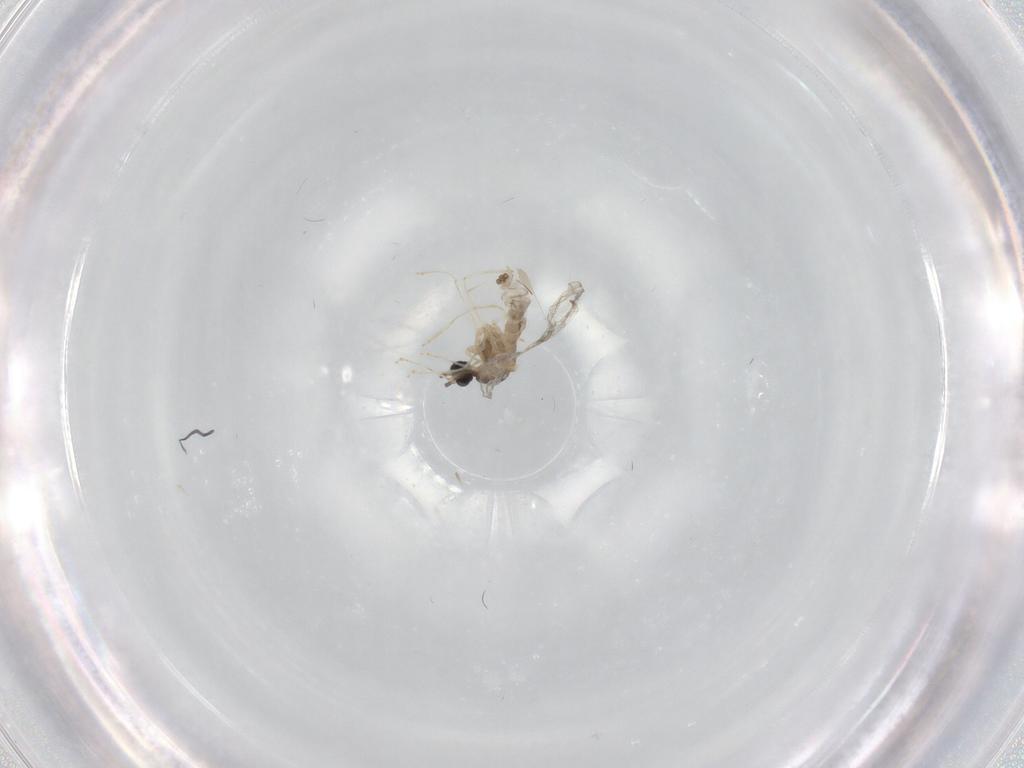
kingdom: Animalia
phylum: Arthropoda
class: Insecta
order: Diptera
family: Cecidomyiidae
